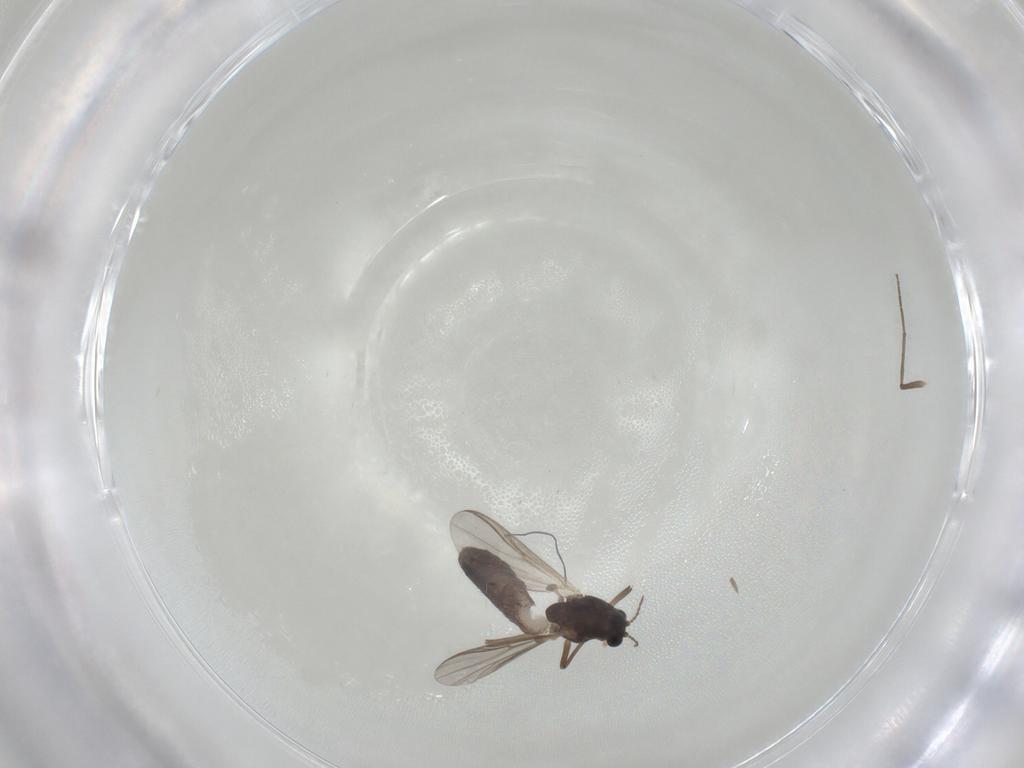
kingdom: Animalia
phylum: Arthropoda
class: Insecta
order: Diptera
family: Chironomidae
